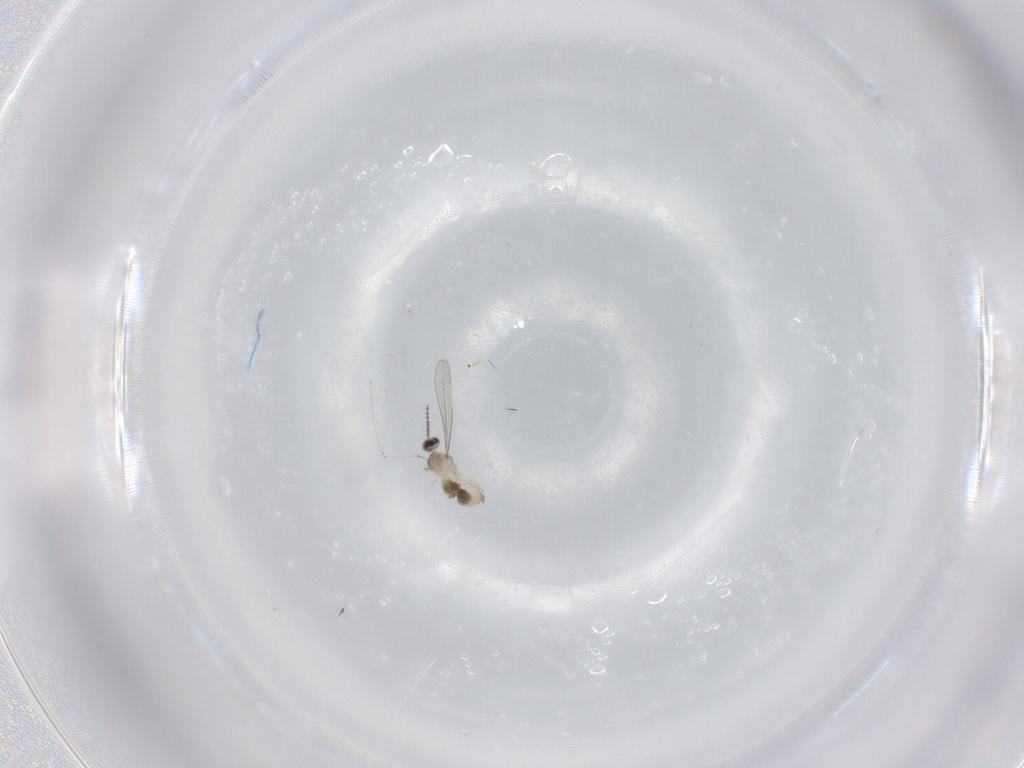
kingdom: Animalia
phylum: Arthropoda
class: Insecta
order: Diptera
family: Cecidomyiidae
